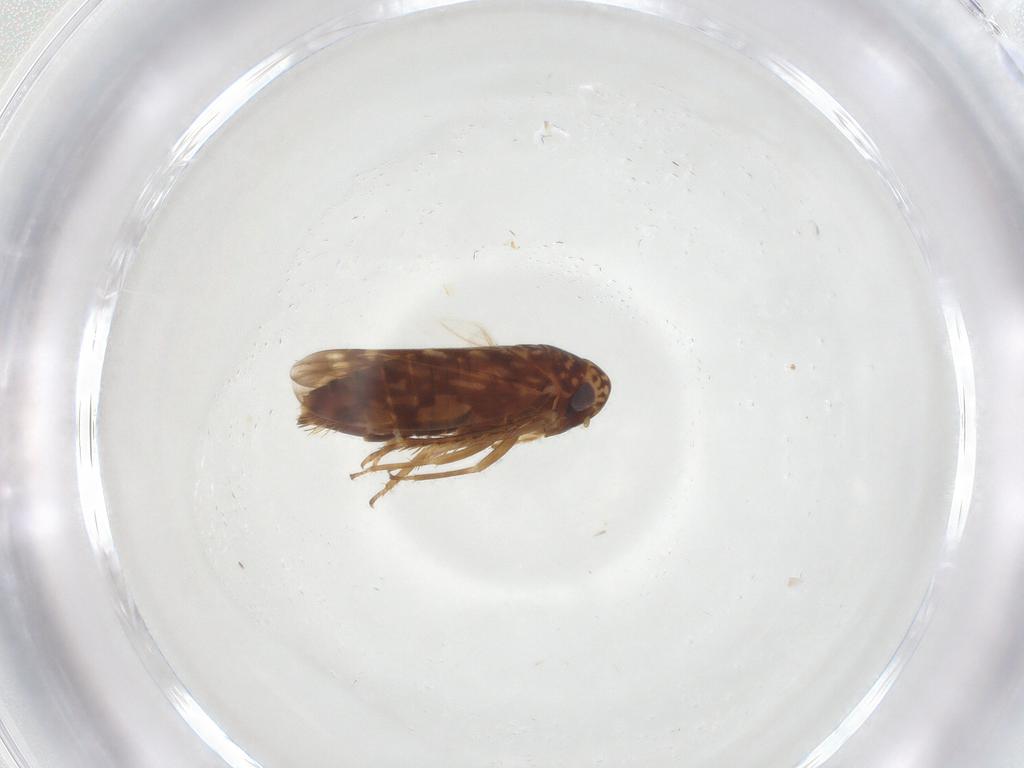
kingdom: Animalia
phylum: Arthropoda
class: Insecta
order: Hemiptera
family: Cicadellidae
